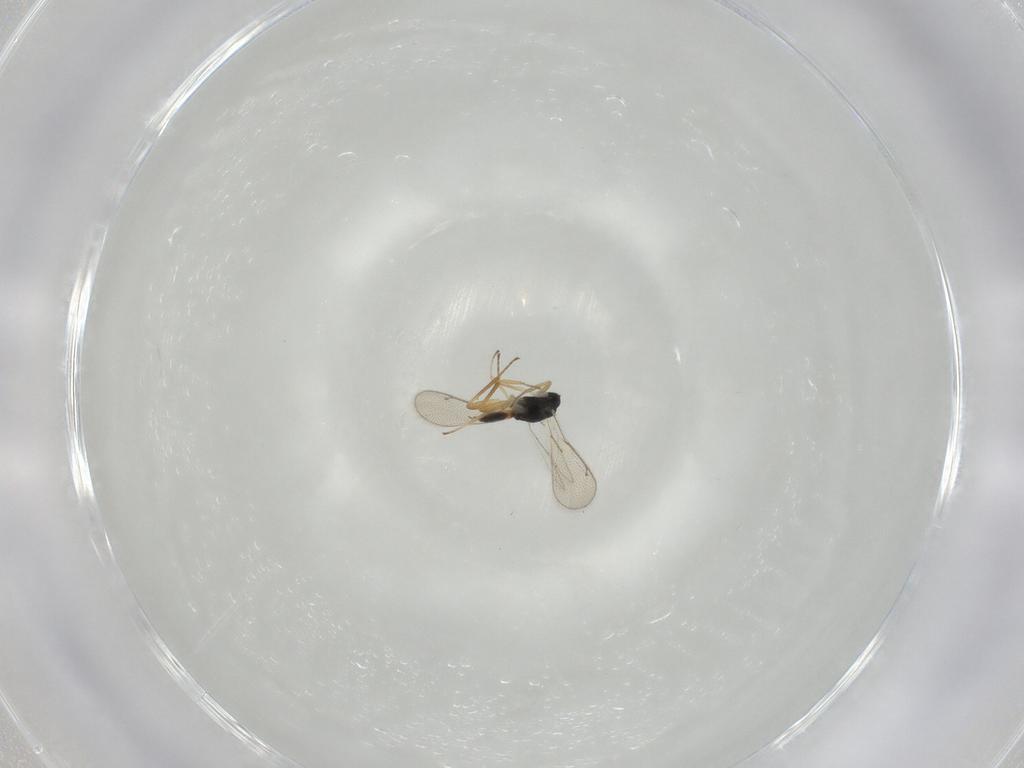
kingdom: Animalia
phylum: Arthropoda
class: Insecta
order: Hymenoptera
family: Eulophidae
